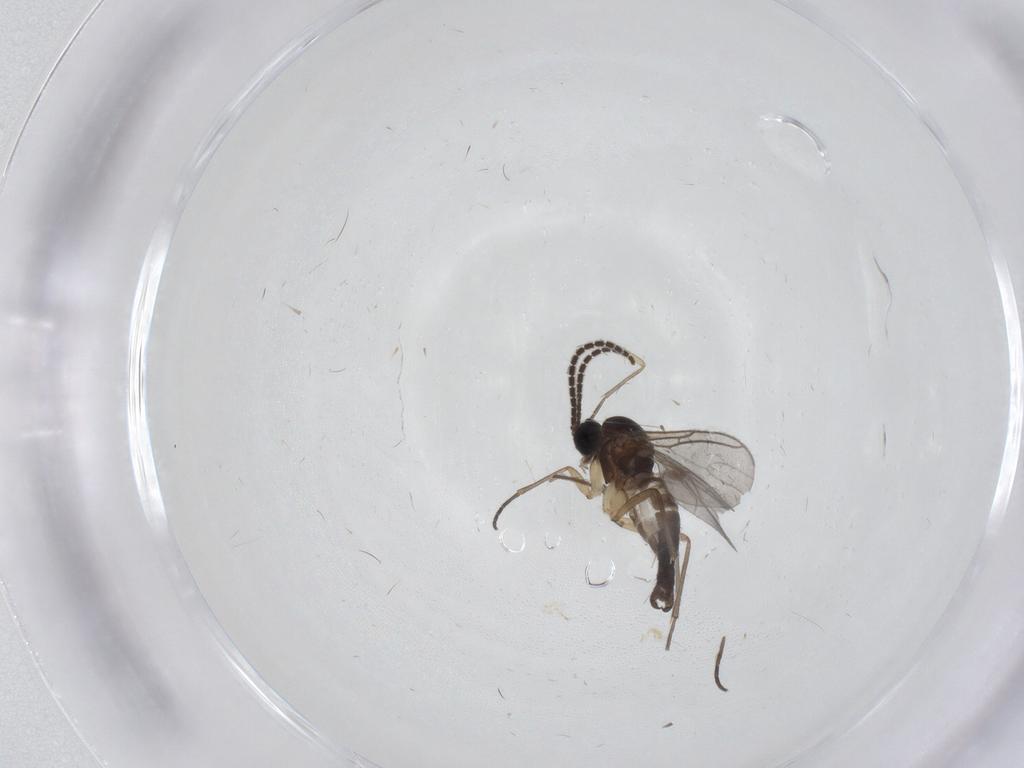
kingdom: Animalia
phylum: Arthropoda
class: Insecta
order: Diptera
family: Sciaridae
